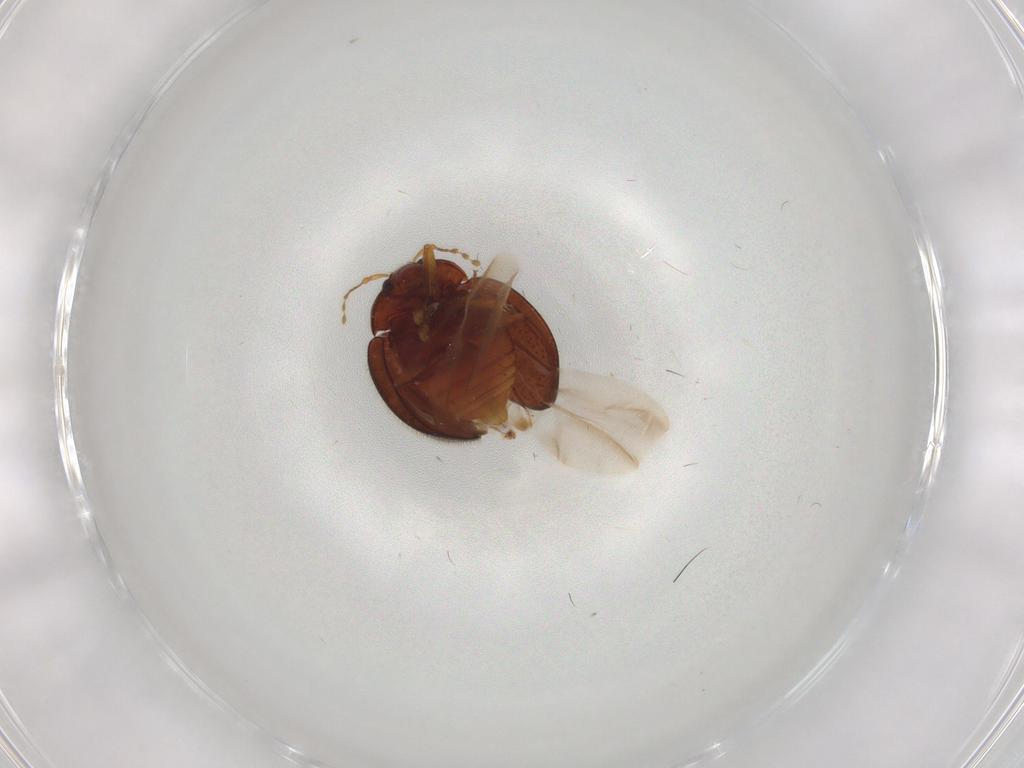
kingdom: Animalia
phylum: Arthropoda
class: Insecta
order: Coleoptera
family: Anamorphidae
